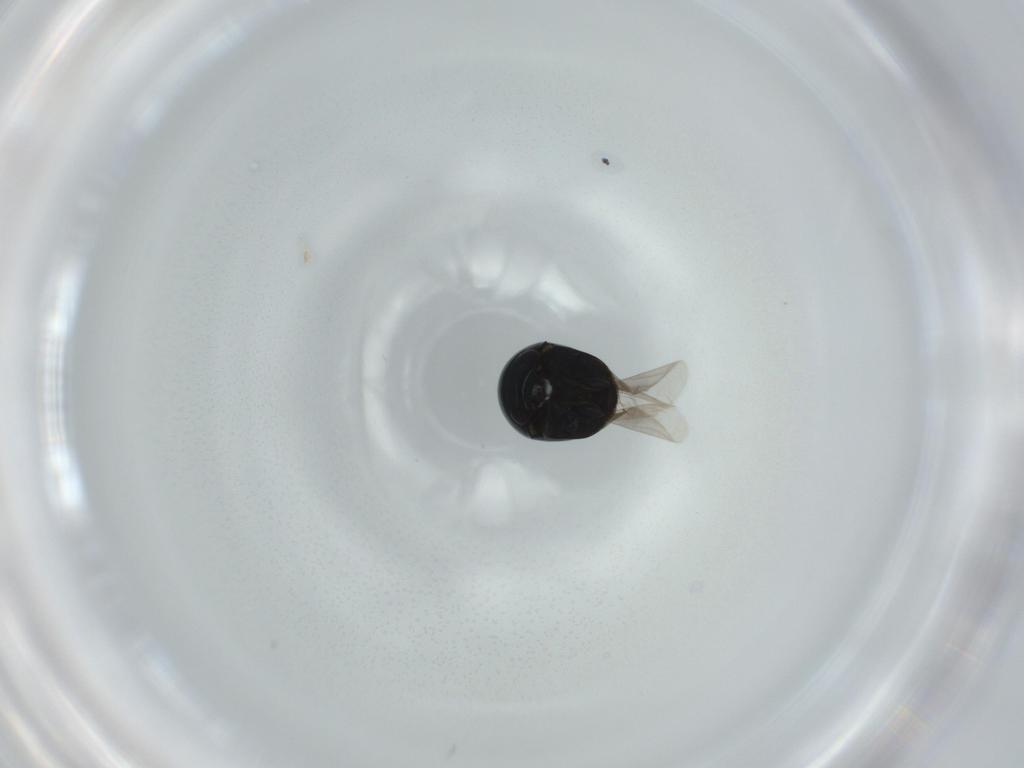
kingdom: Animalia
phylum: Arthropoda
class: Insecta
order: Coleoptera
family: Cybocephalidae
